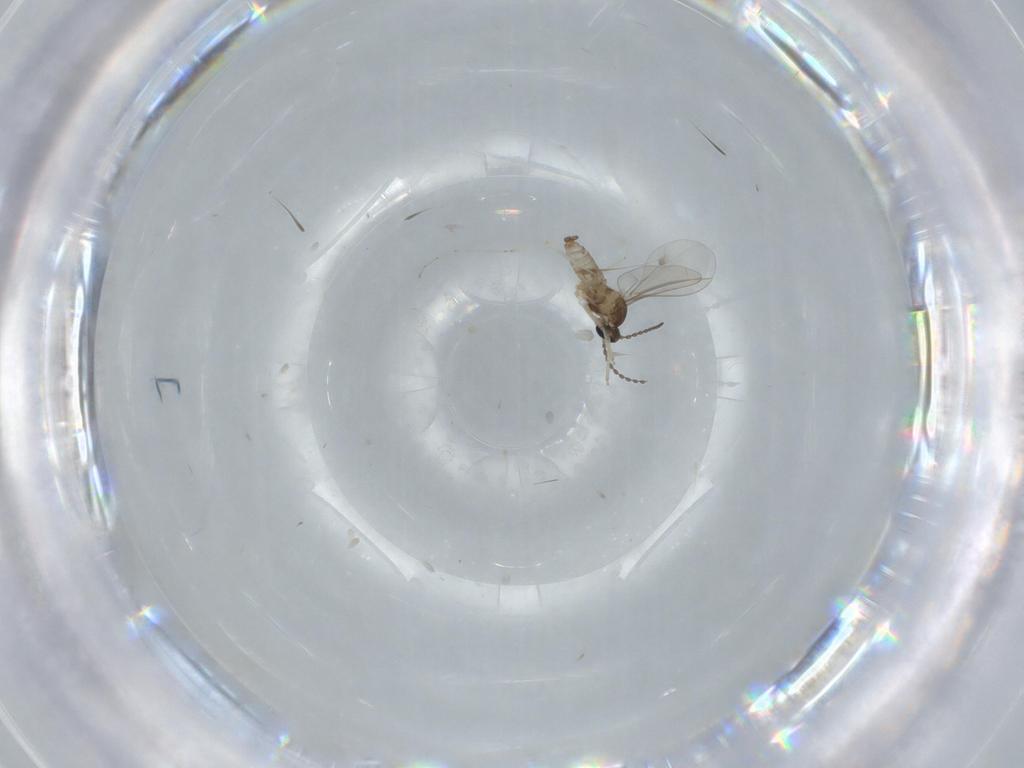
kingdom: Animalia
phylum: Arthropoda
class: Insecta
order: Diptera
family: Cecidomyiidae
